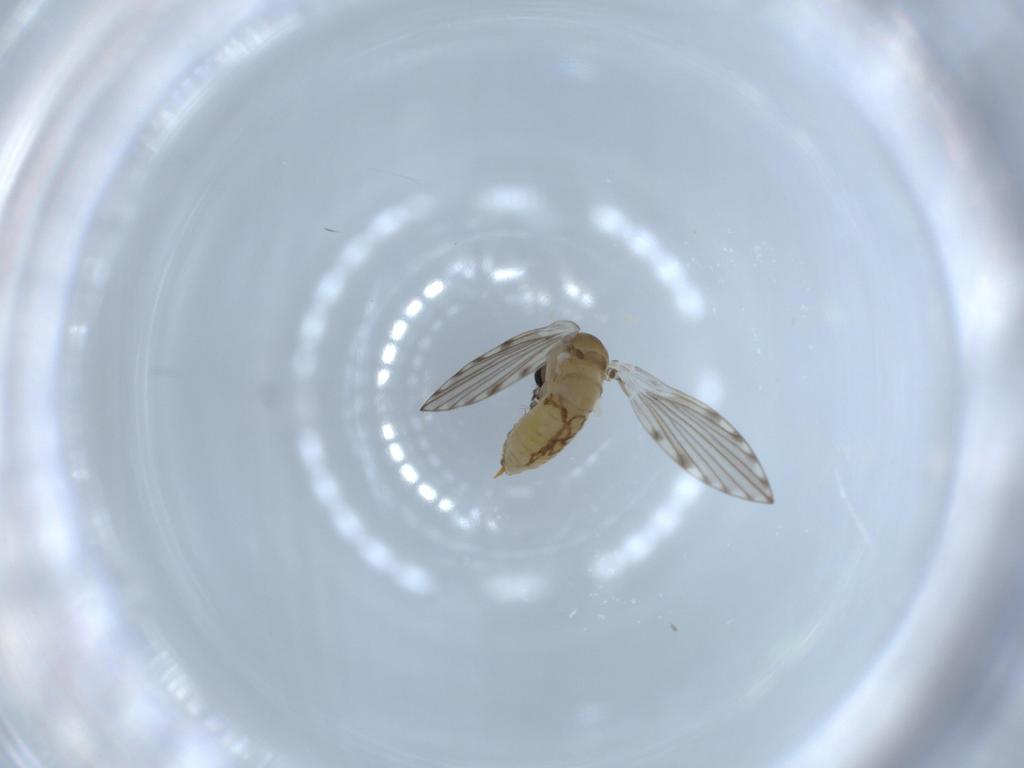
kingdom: Animalia
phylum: Arthropoda
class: Insecta
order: Diptera
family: Psychodidae
